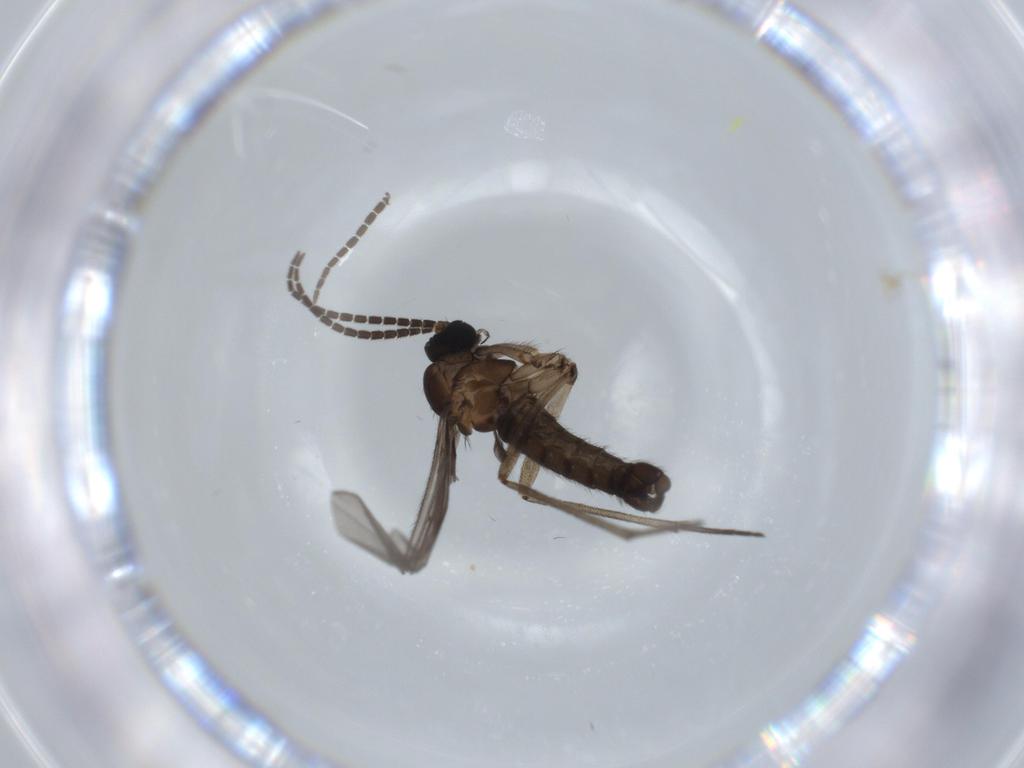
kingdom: Animalia
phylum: Arthropoda
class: Insecta
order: Diptera
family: Sciaridae
